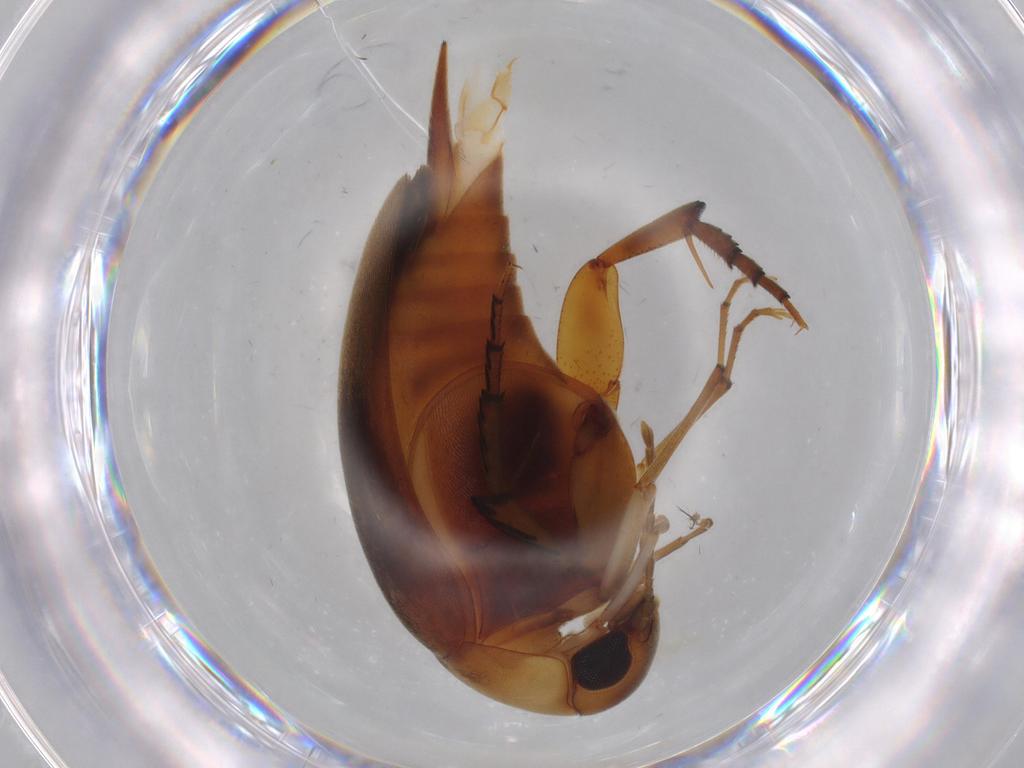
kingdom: Animalia
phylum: Arthropoda
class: Insecta
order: Coleoptera
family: Mordellidae
